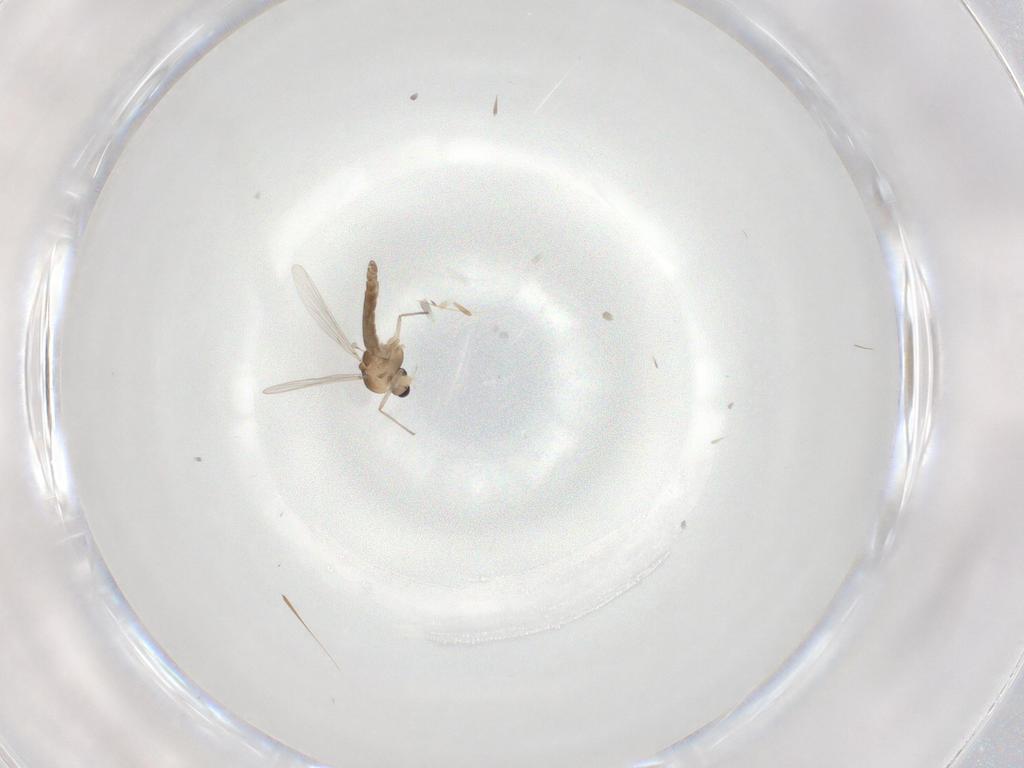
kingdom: Animalia
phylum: Arthropoda
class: Insecta
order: Diptera
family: Chironomidae
